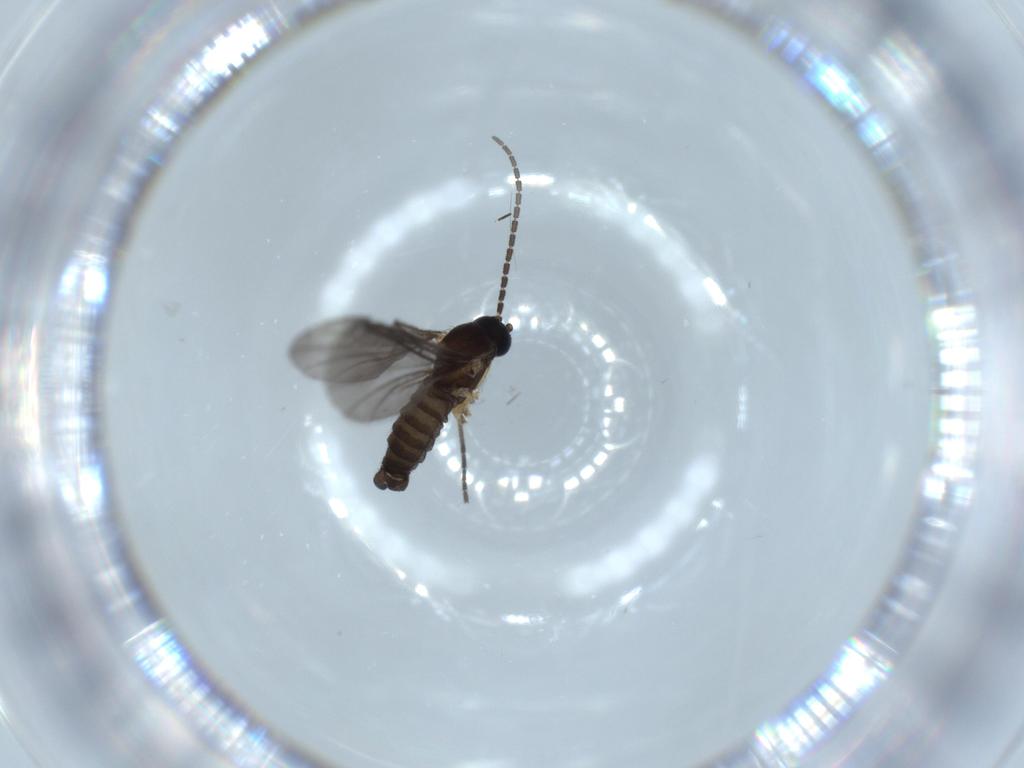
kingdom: Animalia
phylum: Arthropoda
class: Insecta
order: Diptera
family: Sciaridae
